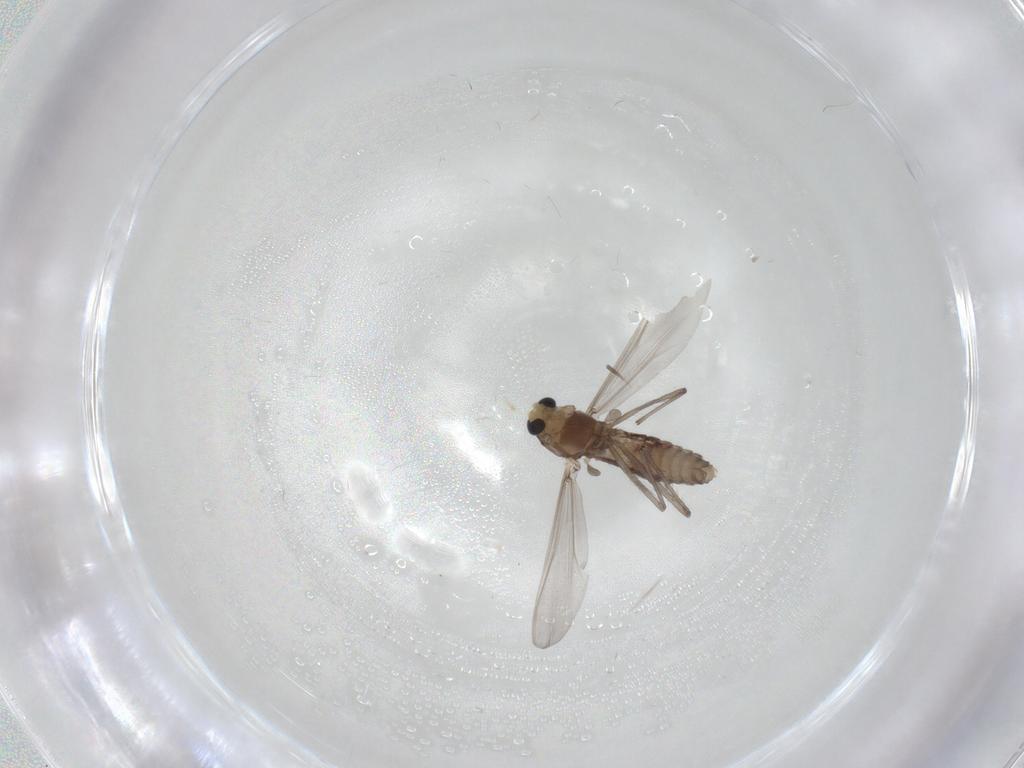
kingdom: Animalia
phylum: Arthropoda
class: Insecta
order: Diptera
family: Chironomidae
